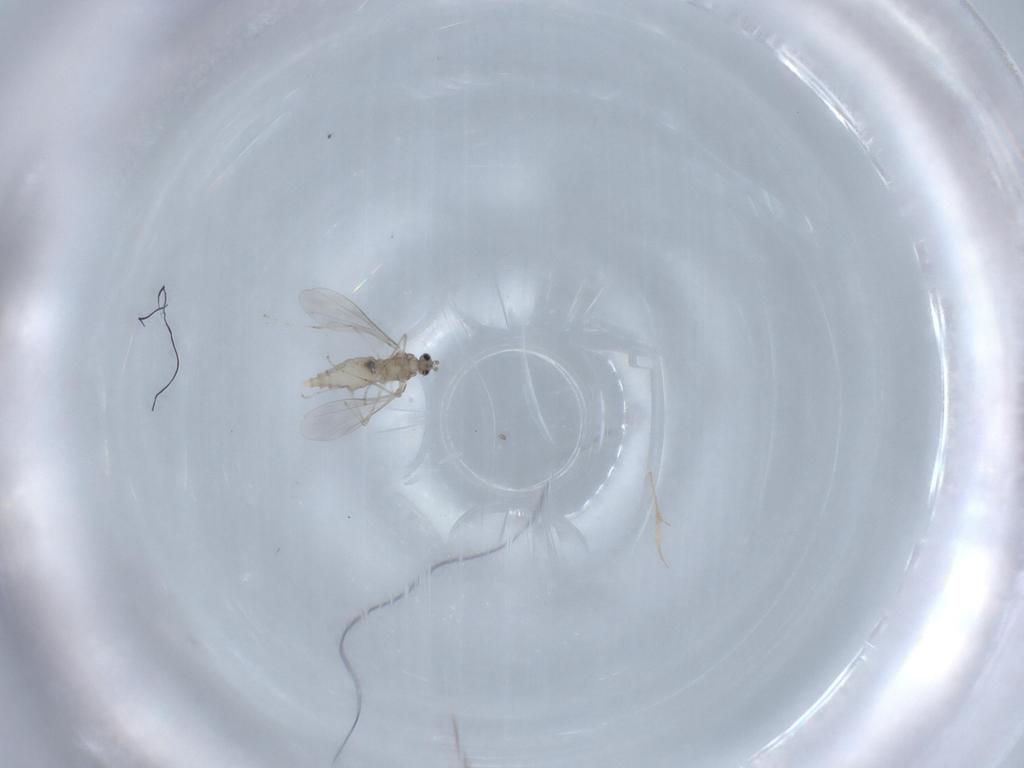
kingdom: Animalia
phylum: Arthropoda
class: Insecta
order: Diptera
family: Cecidomyiidae
